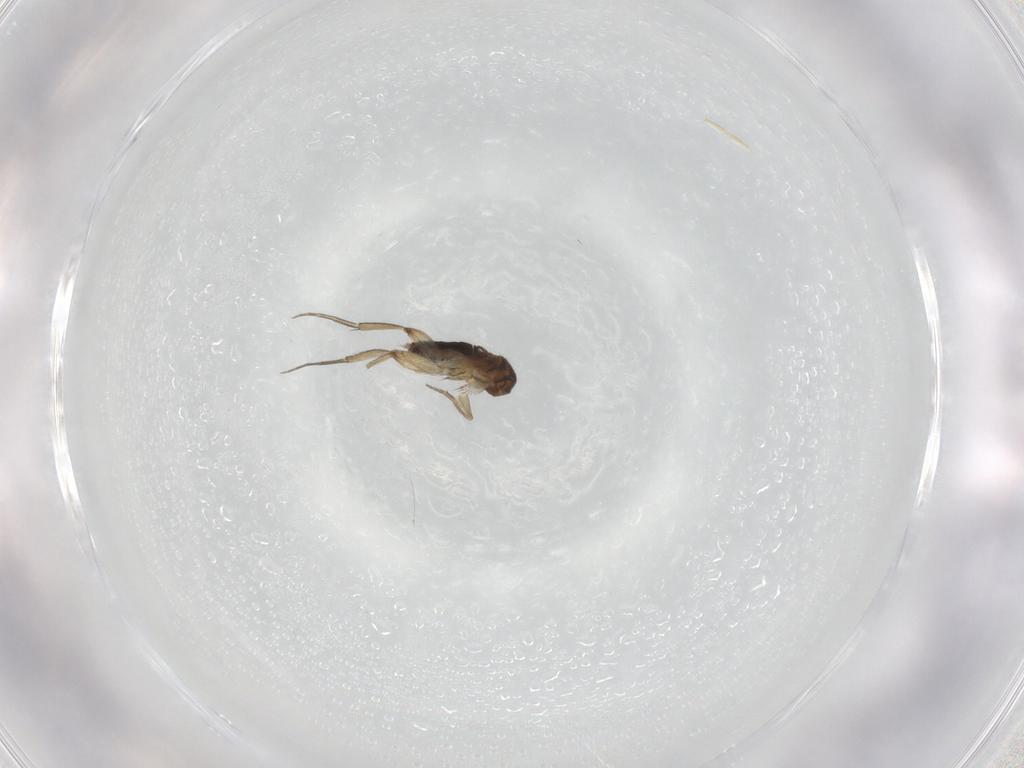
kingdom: Animalia
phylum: Arthropoda
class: Insecta
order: Diptera
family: Phoridae
